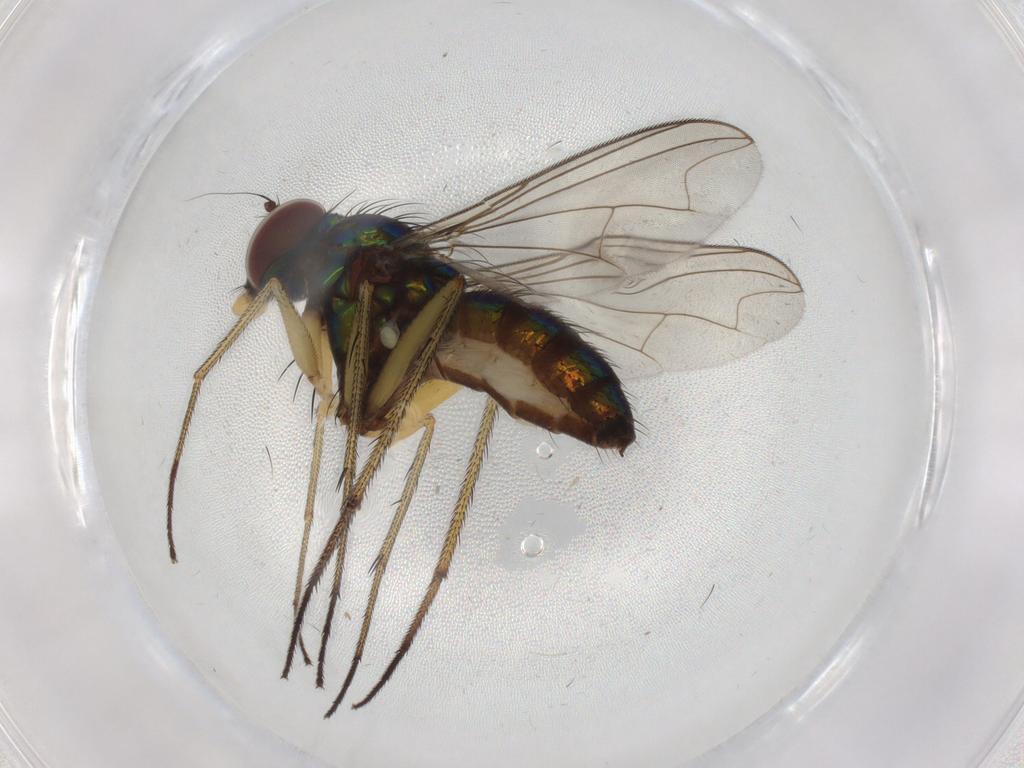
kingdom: Animalia
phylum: Arthropoda
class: Insecta
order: Diptera
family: Dolichopodidae
